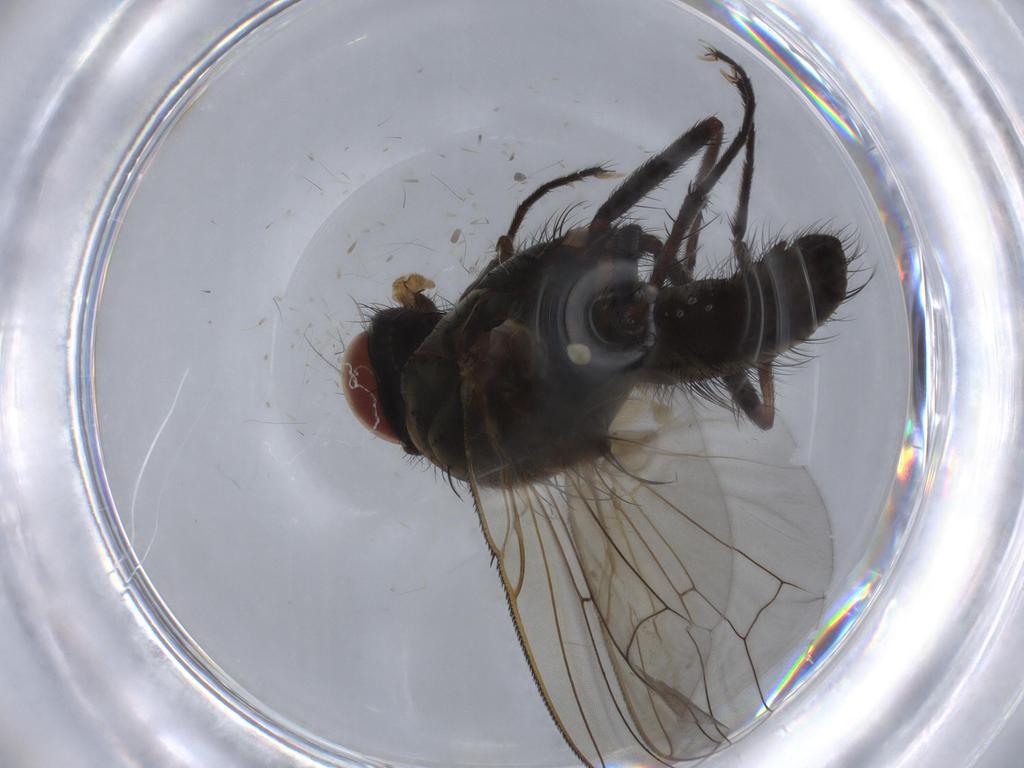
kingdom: Animalia
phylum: Arthropoda
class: Insecta
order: Diptera
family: Anthomyiidae
